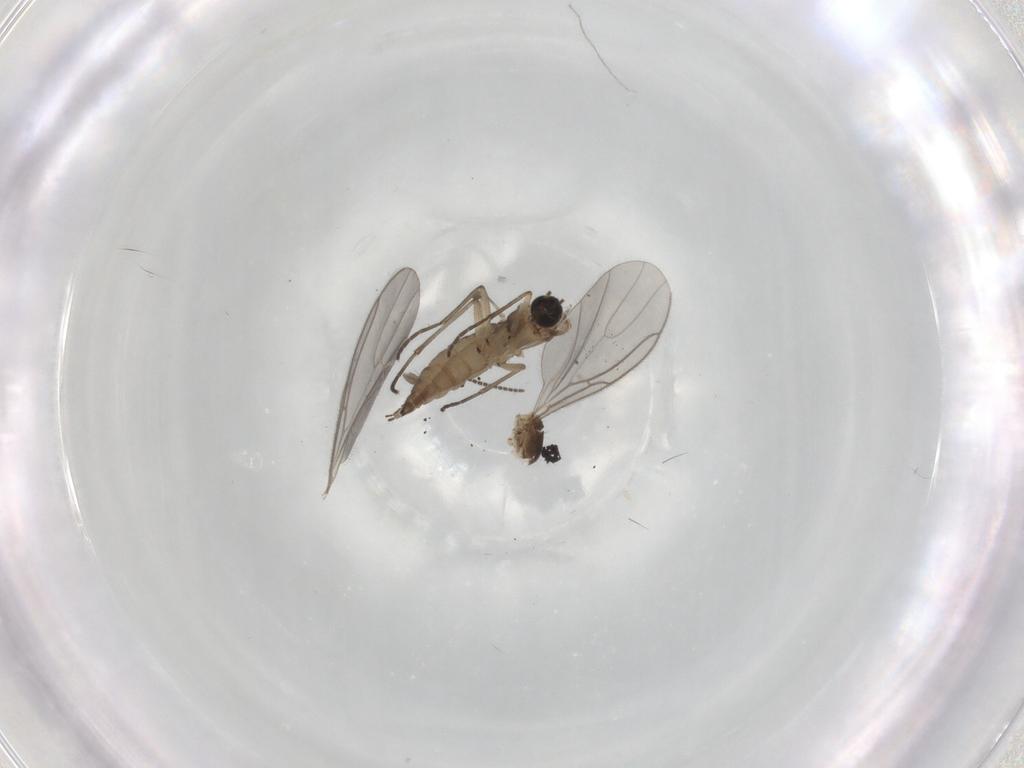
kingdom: Animalia
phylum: Arthropoda
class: Insecta
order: Diptera
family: Sciaridae
